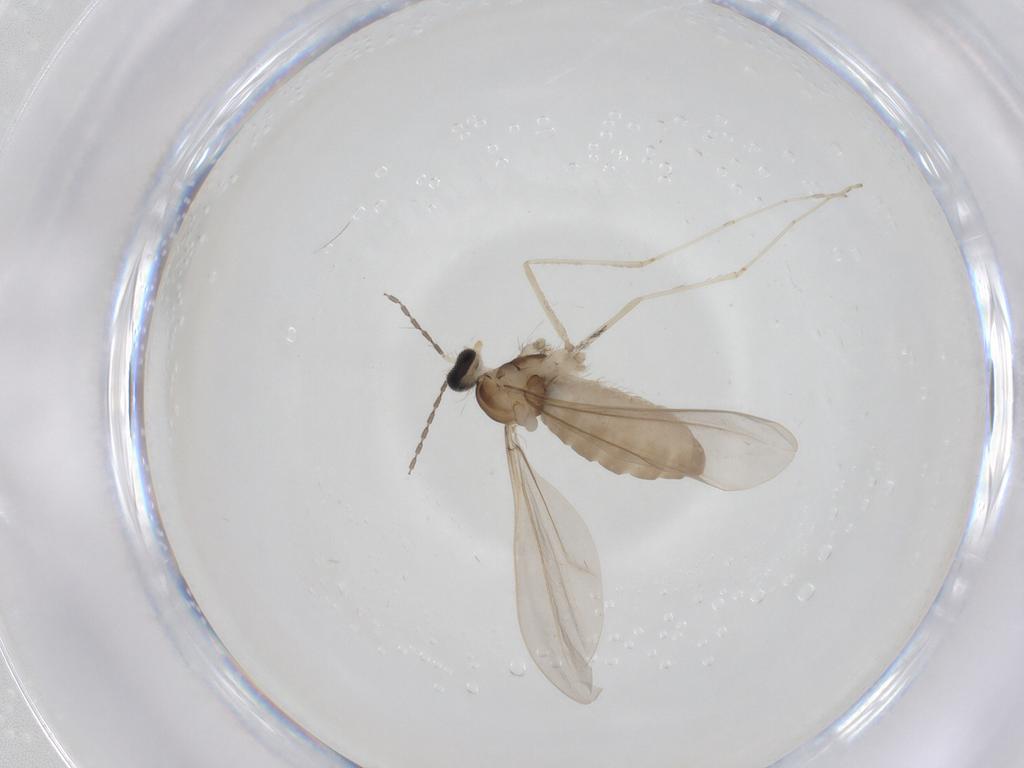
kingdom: Animalia
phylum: Arthropoda
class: Insecta
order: Diptera
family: Cecidomyiidae
